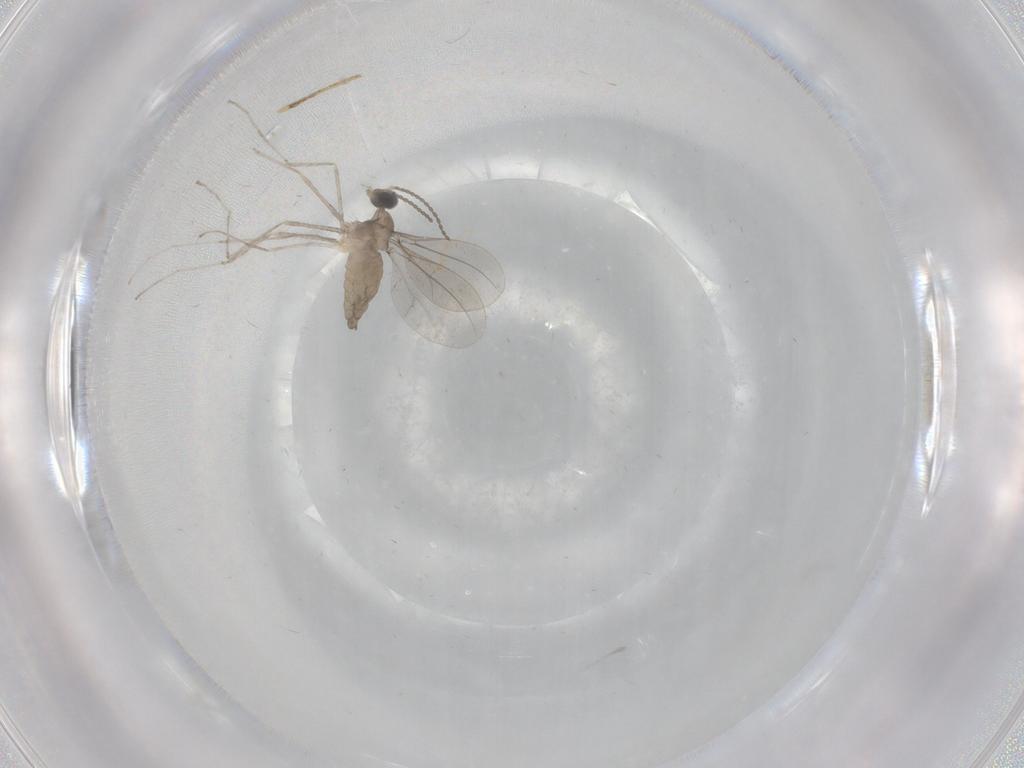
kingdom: Animalia
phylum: Arthropoda
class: Insecta
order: Diptera
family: Cecidomyiidae
